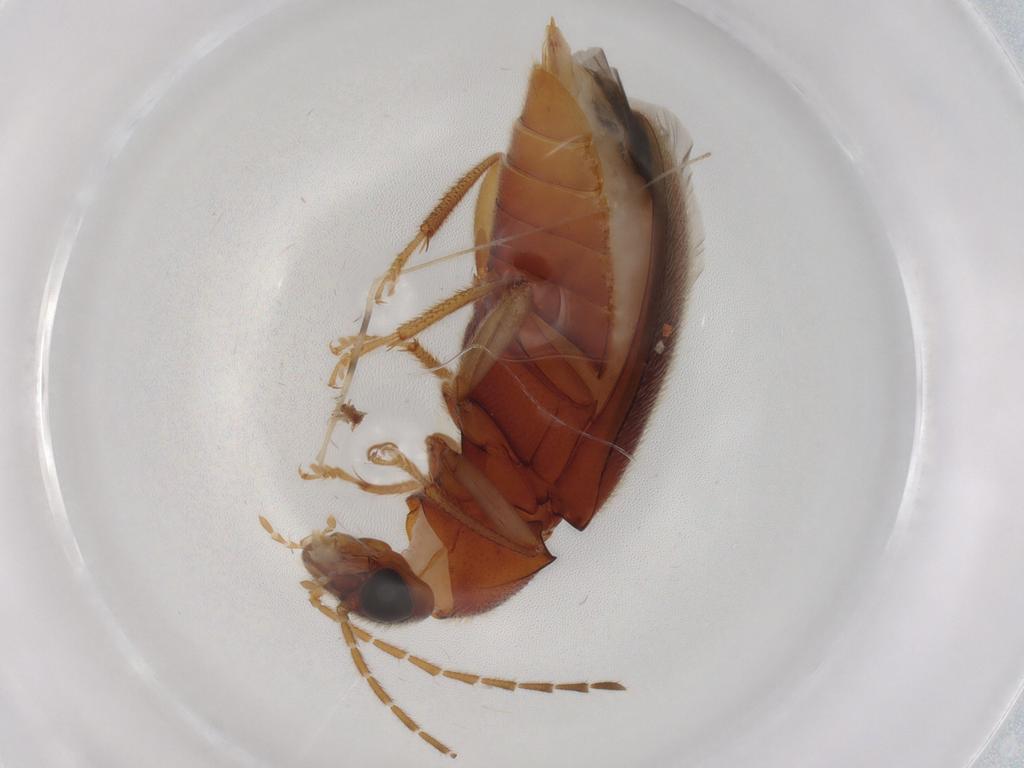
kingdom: Animalia
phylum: Arthropoda
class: Insecta
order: Coleoptera
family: Ptilodactylidae
